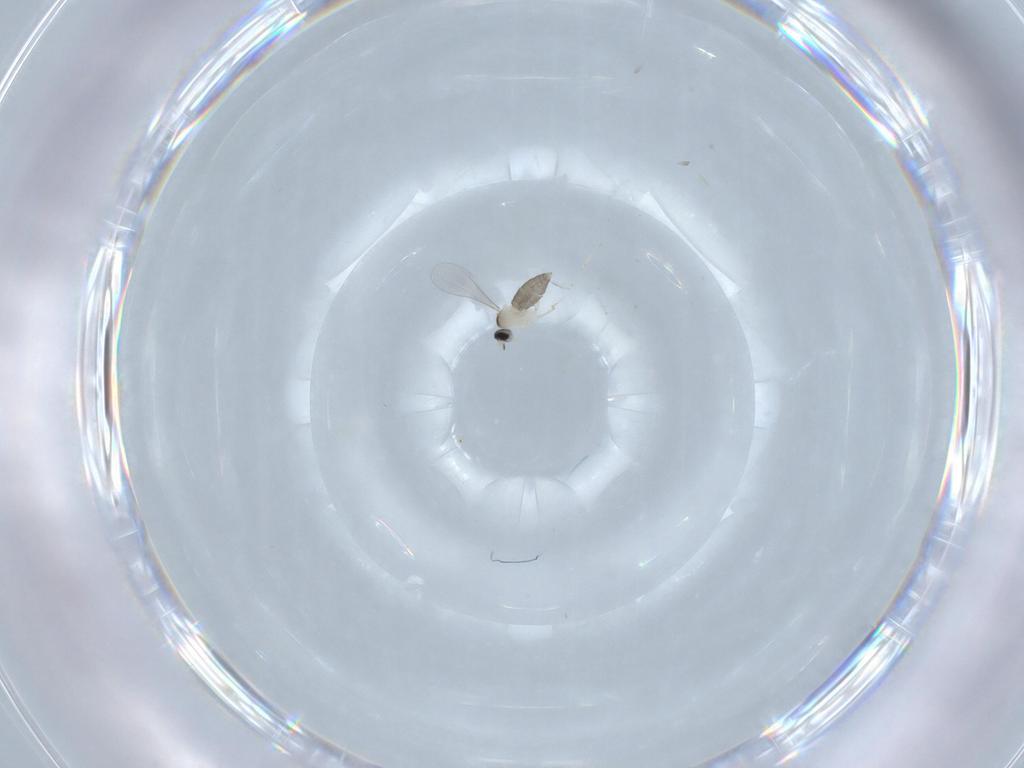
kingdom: Animalia
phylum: Arthropoda
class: Insecta
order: Diptera
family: Cecidomyiidae
